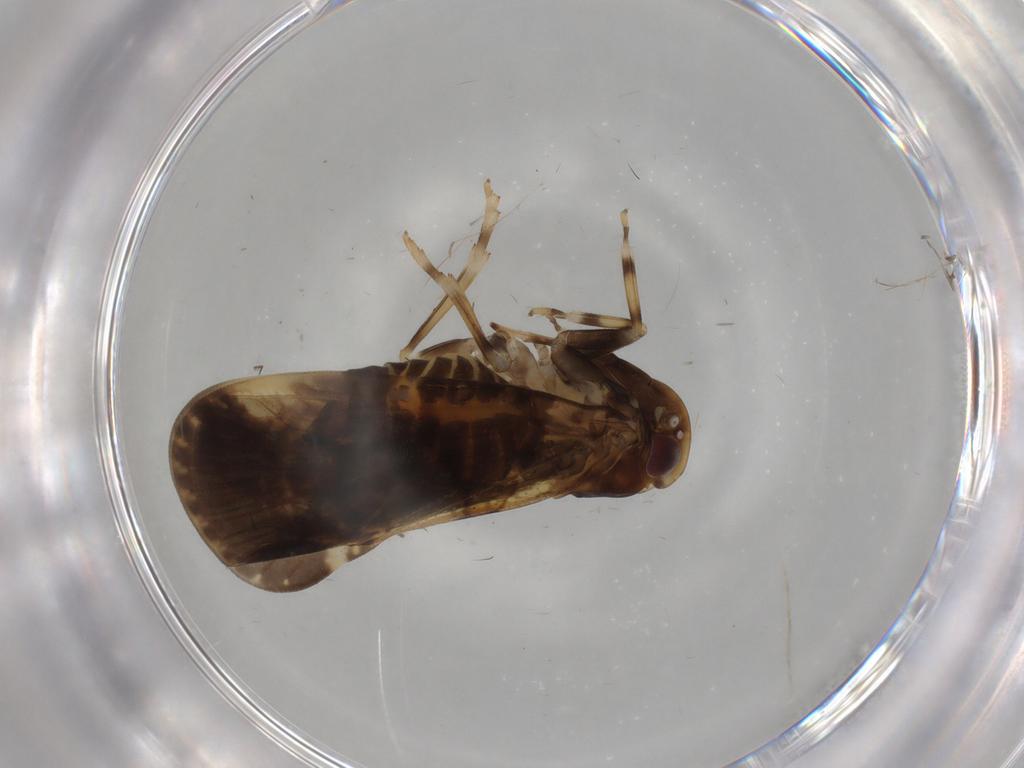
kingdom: Animalia
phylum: Arthropoda
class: Insecta
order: Hemiptera
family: Cixiidae
